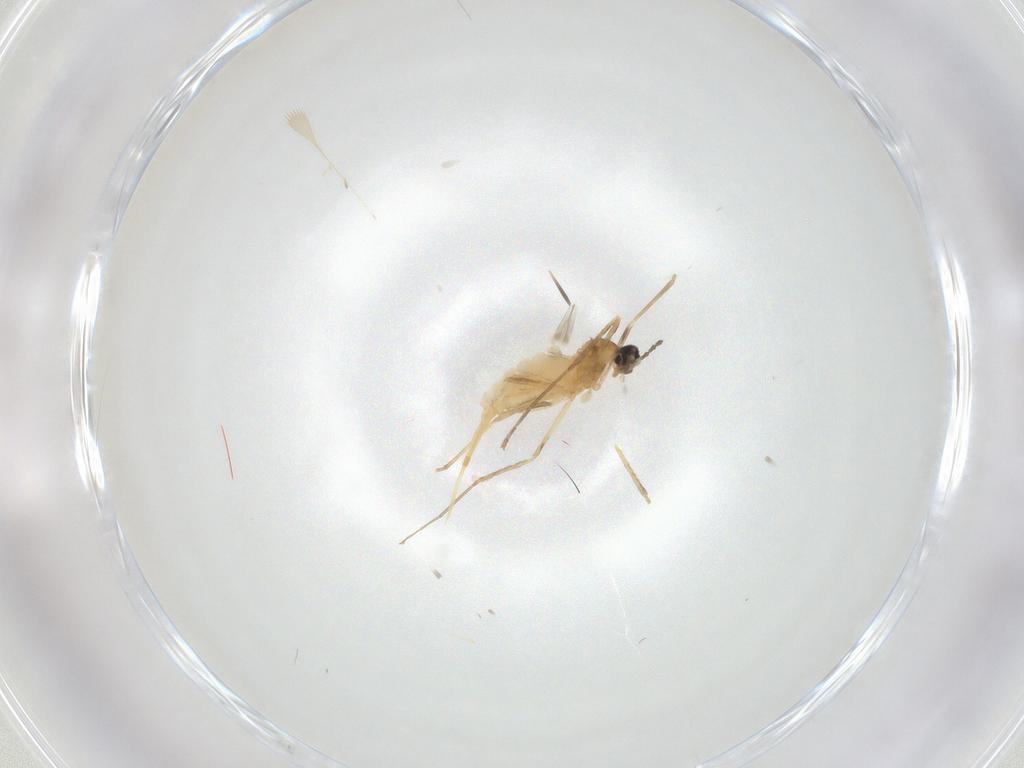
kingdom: Animalia
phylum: Arthropoda
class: Insecta
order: Diptera
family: Cecidomyiidae
